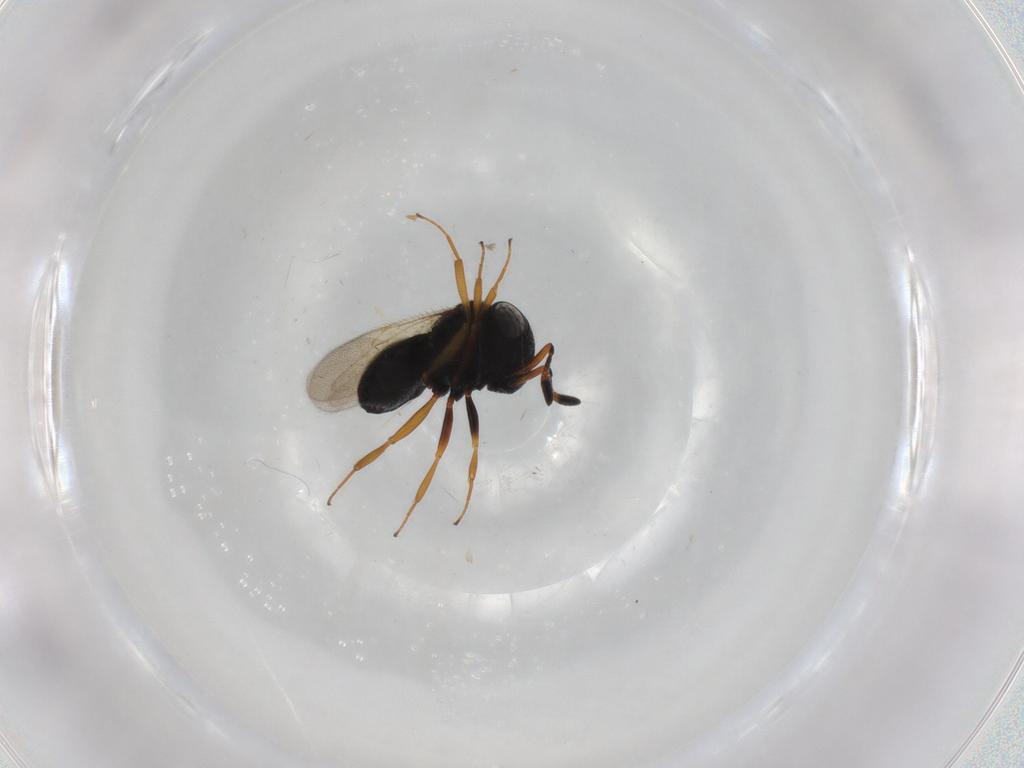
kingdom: Animalia
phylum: Arthropoda
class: Insecta
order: Hymenoptera
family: Scelionidae
